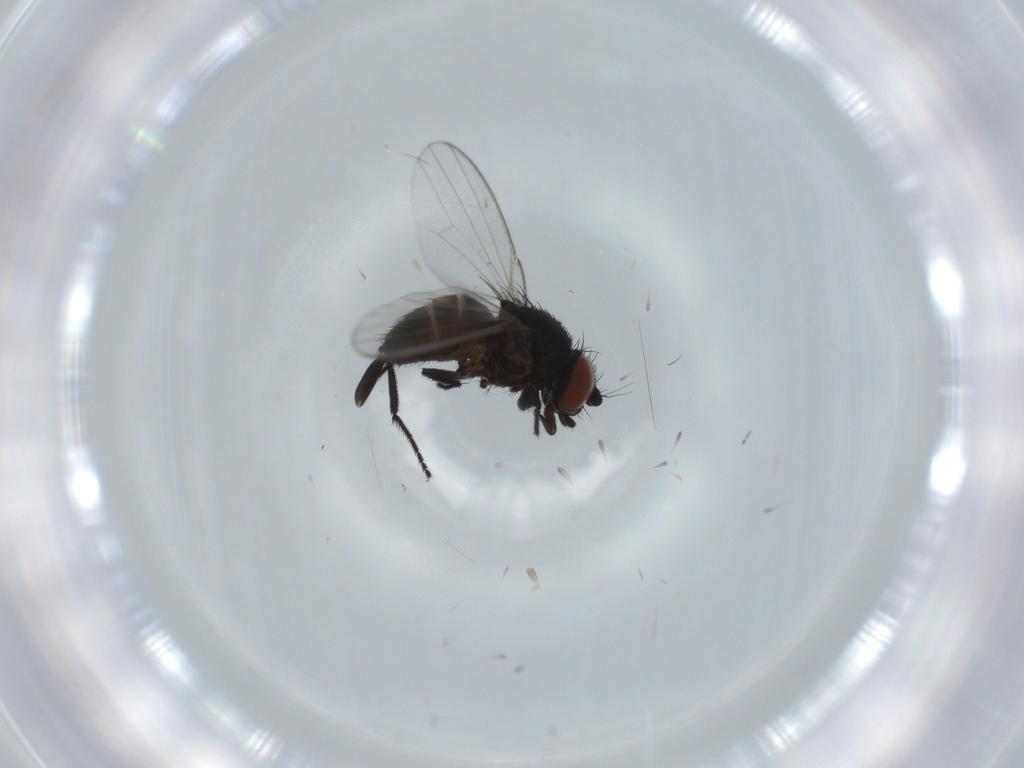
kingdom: Animalia
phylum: Arthropoda
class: Insecta
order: Diptera
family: Milichiidae
